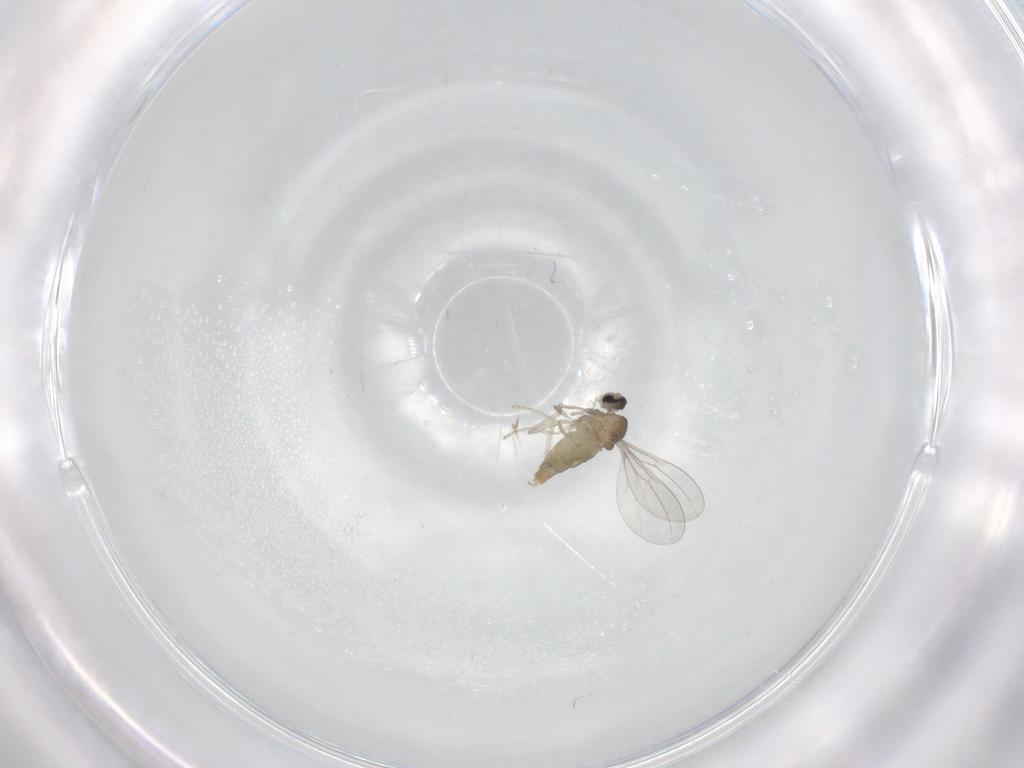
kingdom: Animalia
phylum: Arthropoda
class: Insecta
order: Diptera
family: Cecidomyiidae
